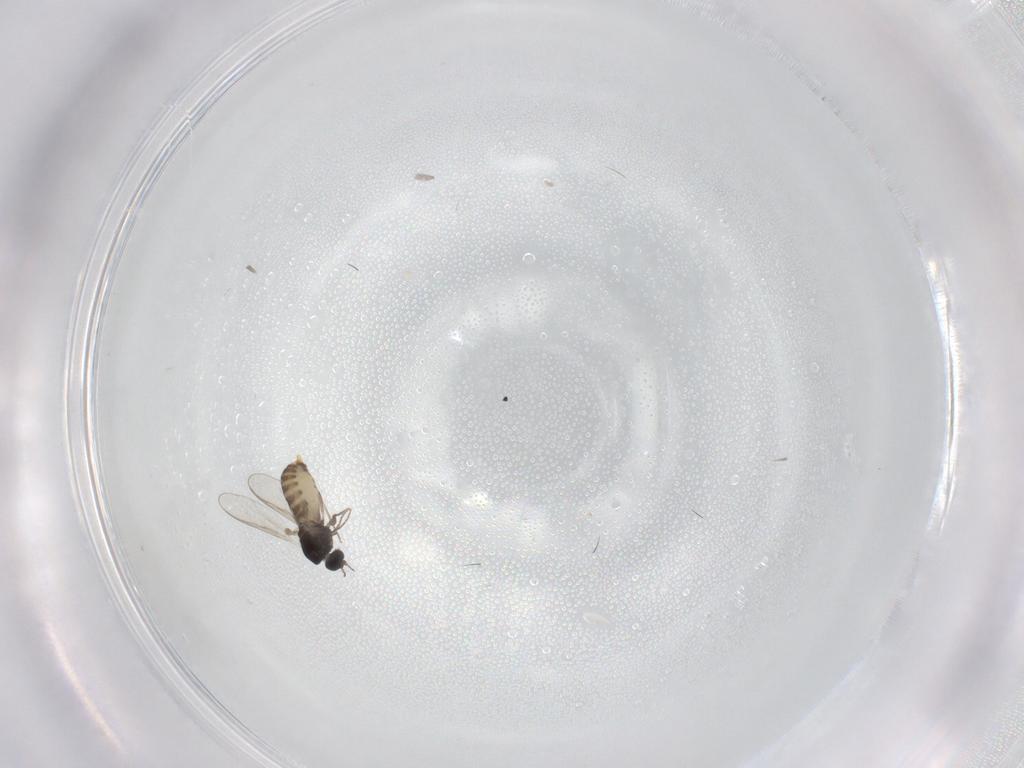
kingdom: Animalia
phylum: Arthropoda
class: Insecta
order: Diptera
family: Chironomidae
